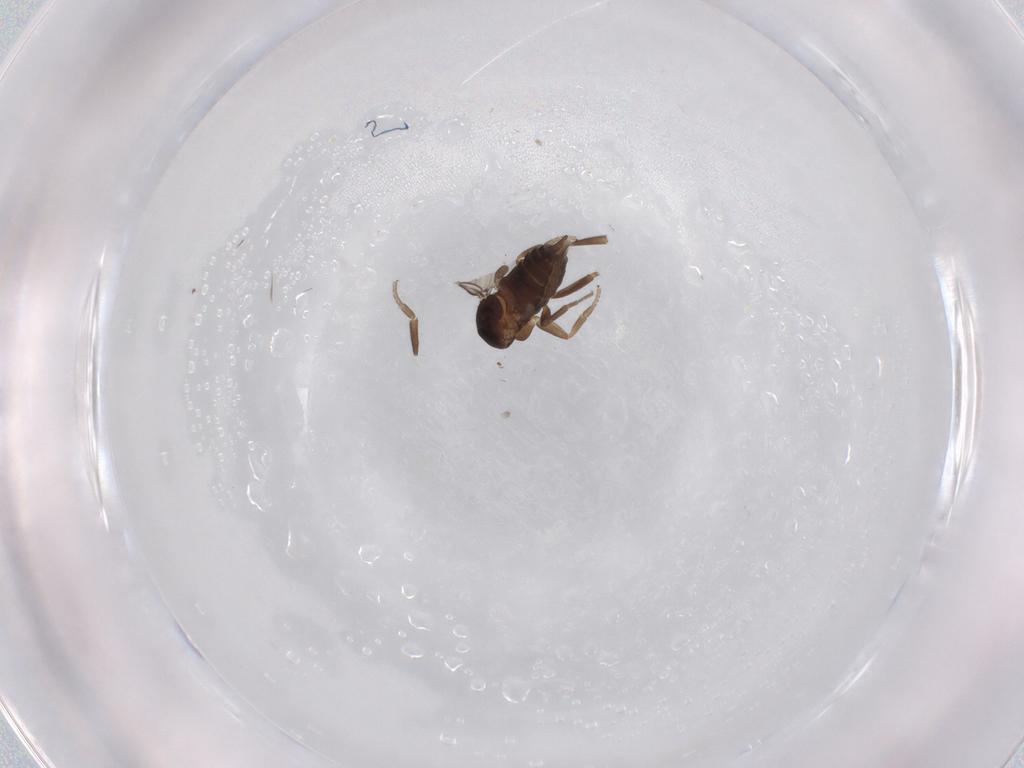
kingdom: Animalia
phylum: Arthropoda
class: Insecta
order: Diptera
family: Phoridae
